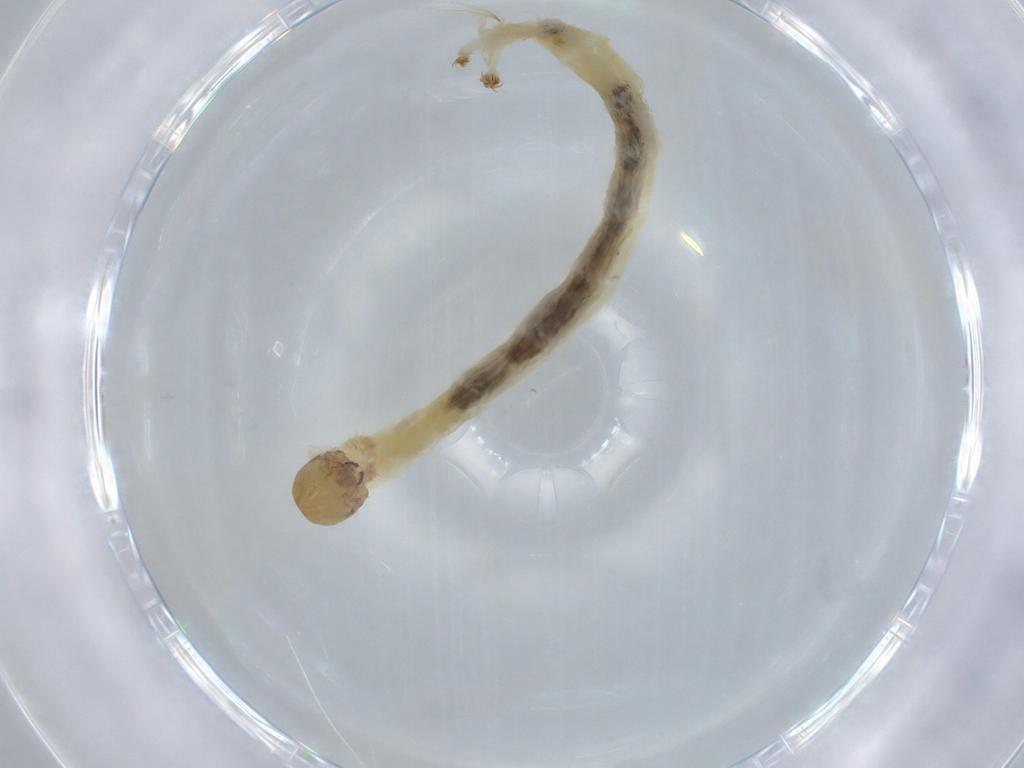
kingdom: Animalia
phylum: Arthropoda
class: Insecta
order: Diptera
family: Chironomidae
